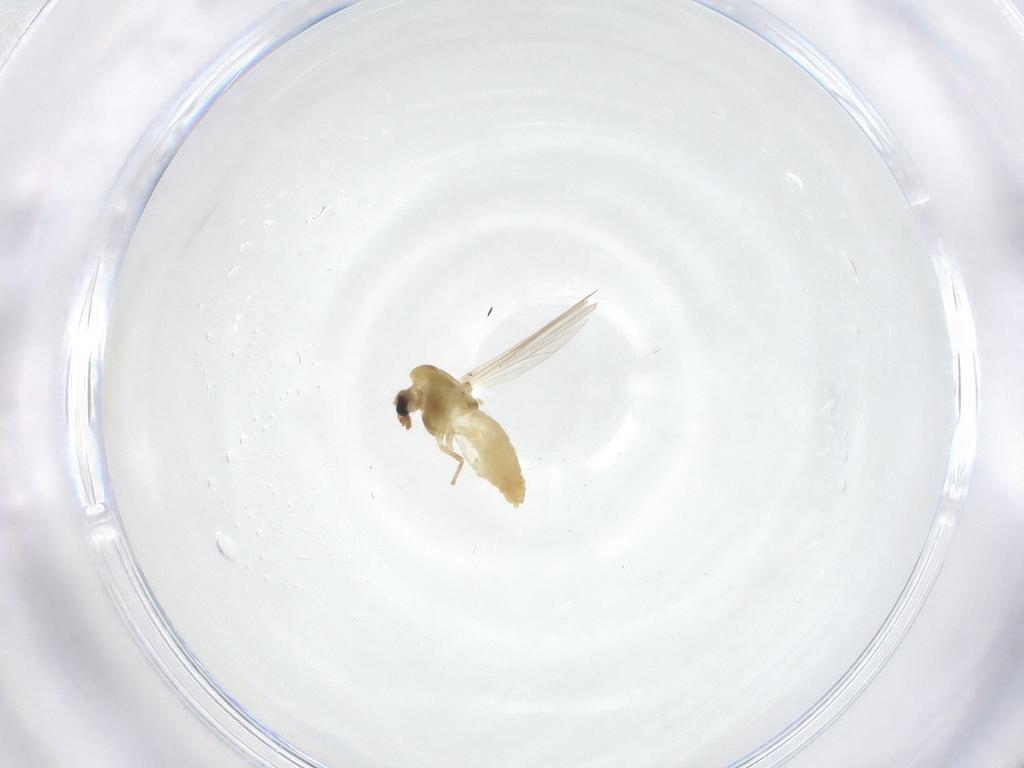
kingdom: Animalia
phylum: Arthropoda
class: Insecta
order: Diptera
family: Chironomidae
